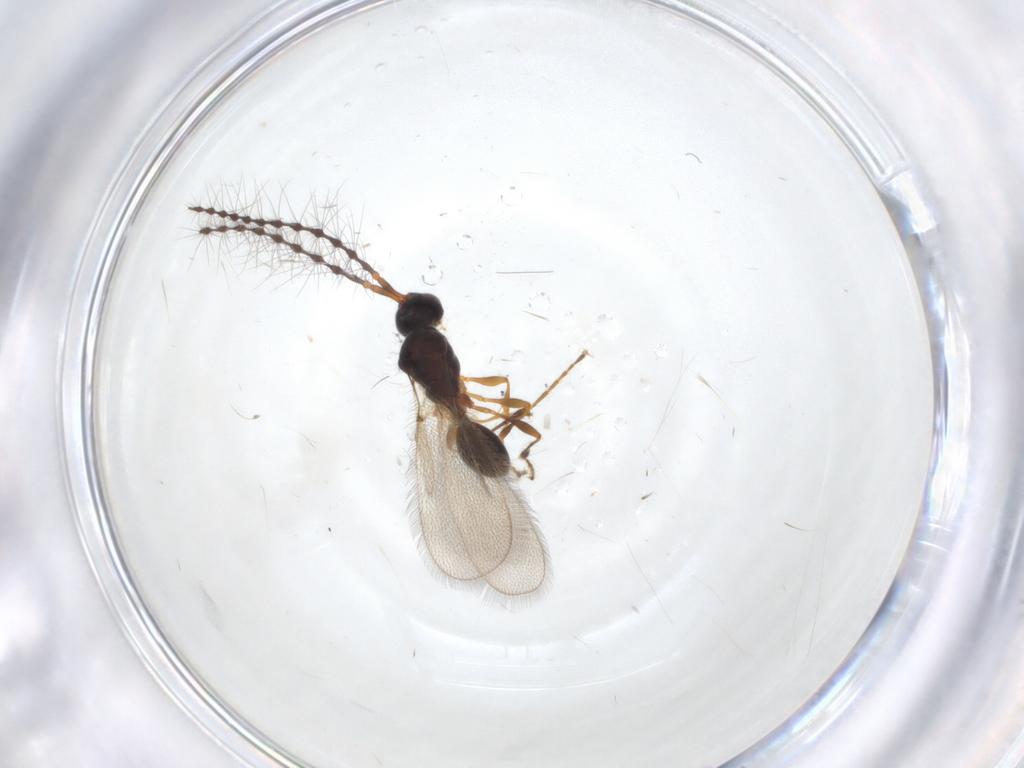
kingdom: Animalia
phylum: Arthropoda
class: Insecta
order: Hymenoptera
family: Diapriidae
